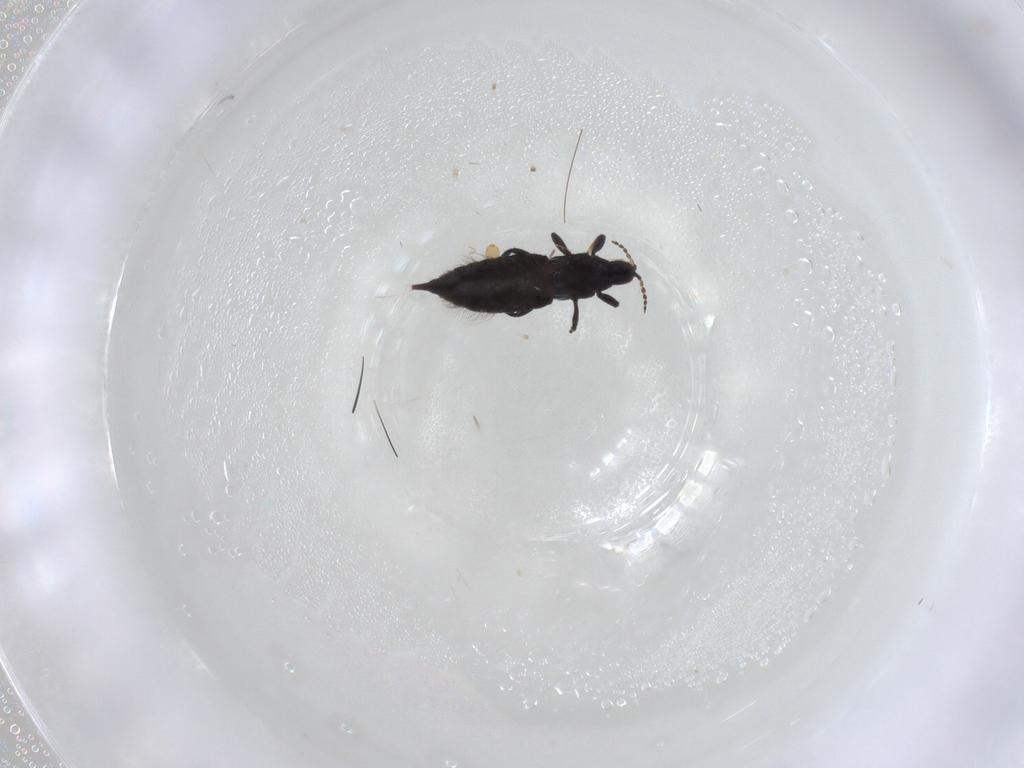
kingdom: Animalia
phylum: Arthropoda
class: Insecta
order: Thysanoptera
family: Phlaeothripidae
